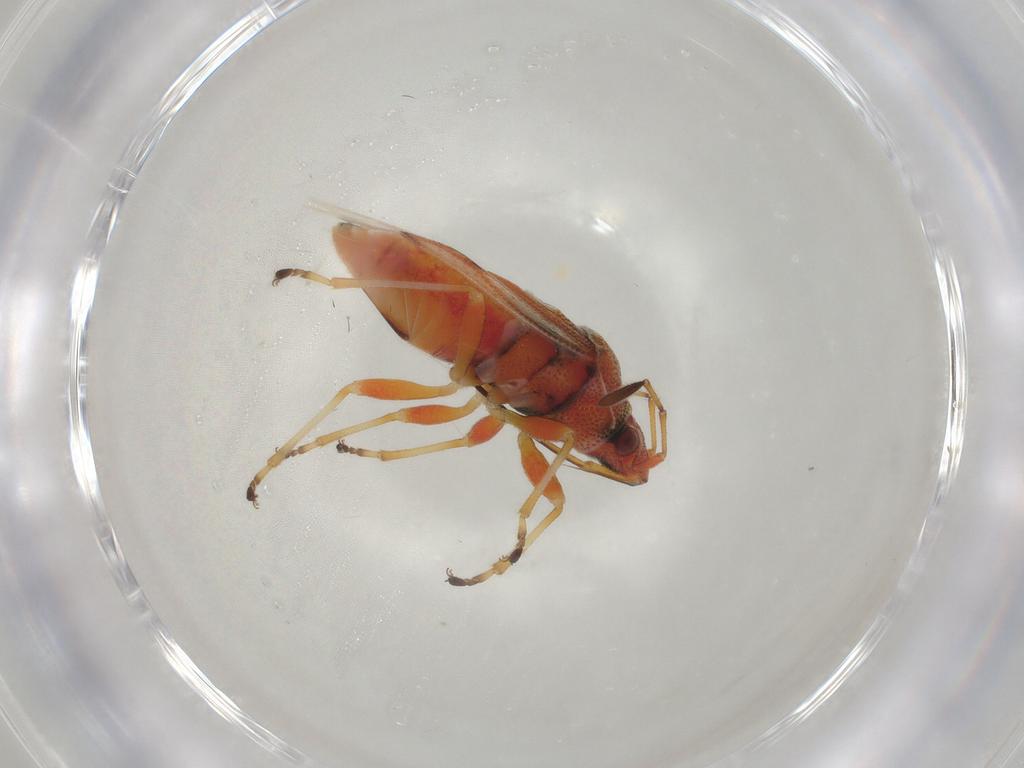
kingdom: Animalia
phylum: Arthropoda
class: Insecta
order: Hemiptera
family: Lygaeidae
